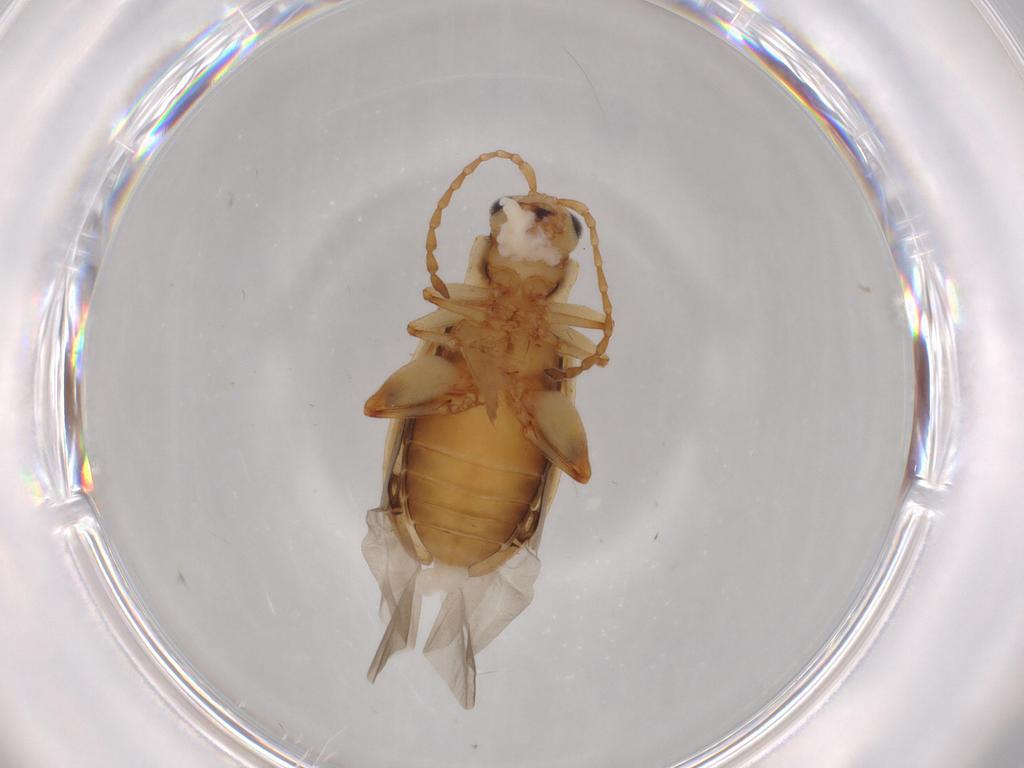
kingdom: Animalia
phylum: Arthropoda
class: Insecta
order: Coleoptera
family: Chrysomelidae
